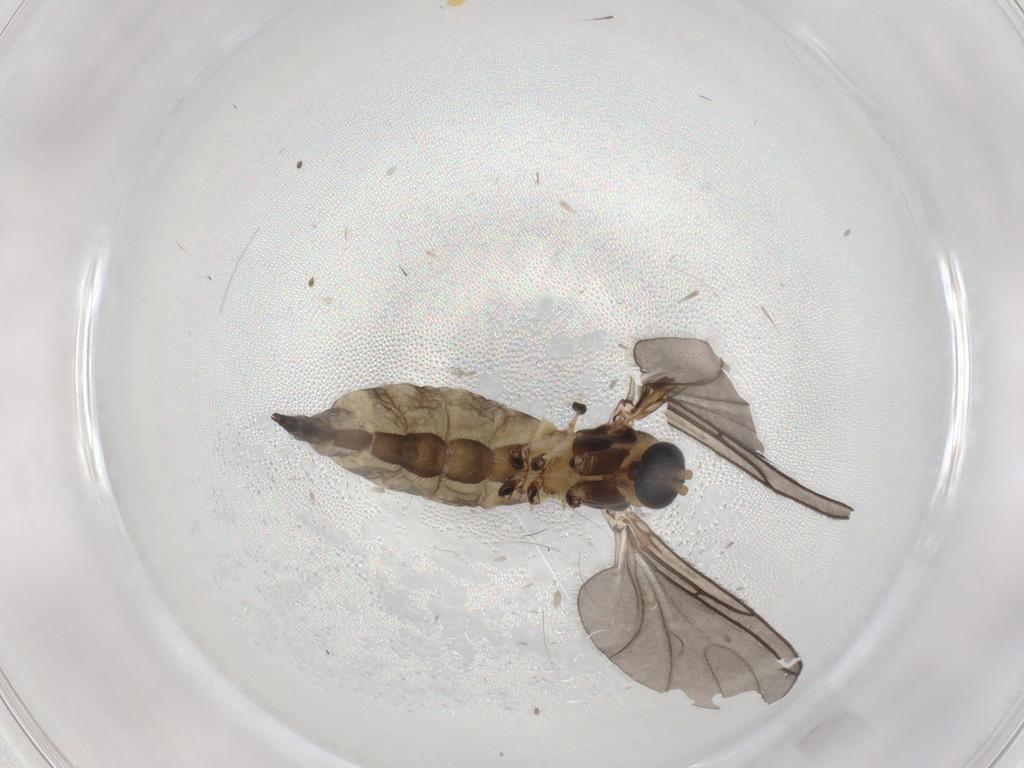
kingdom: Animalia
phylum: Arthropoda
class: Insecta
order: Diptera
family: Sciaridae
